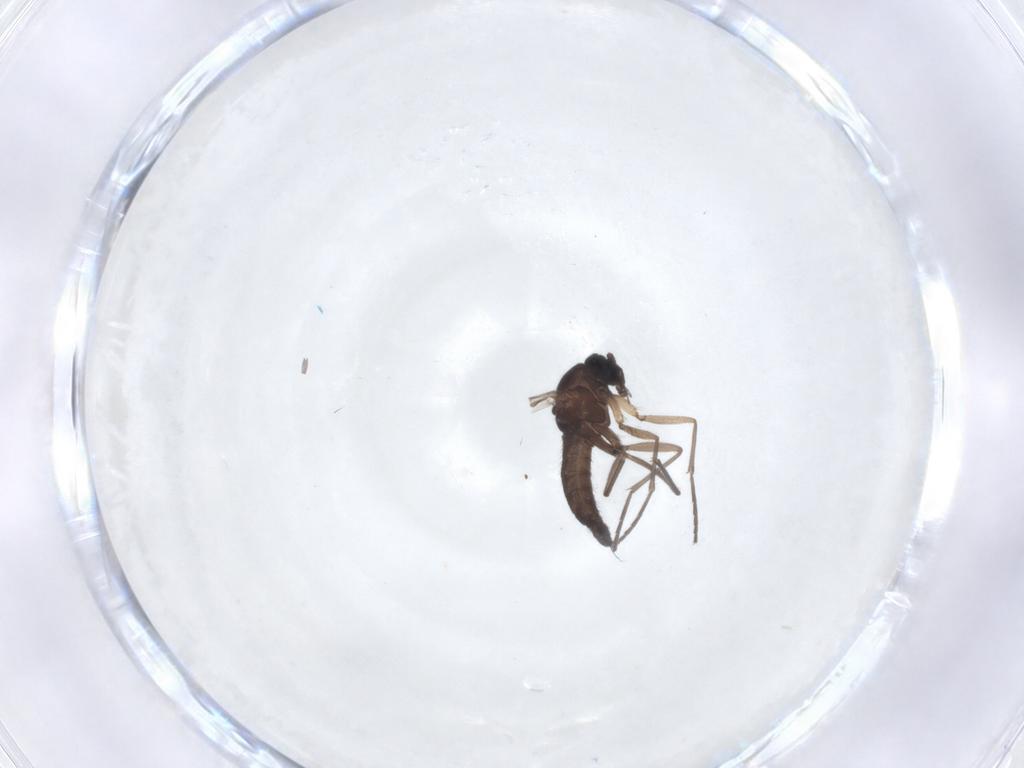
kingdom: Animalia
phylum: Arthropoda
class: Insecta
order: Diptera
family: Sciaridae
